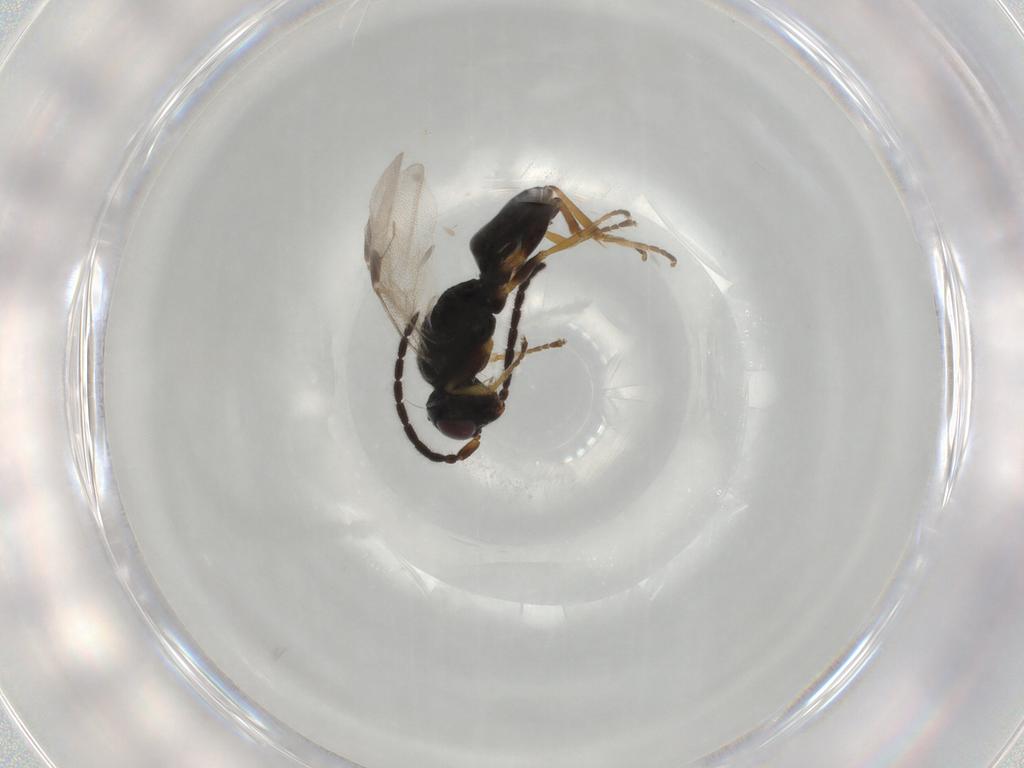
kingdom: Animalia
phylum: Arthropoda
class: Insecta
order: Hymenoptera
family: Dryinidae
